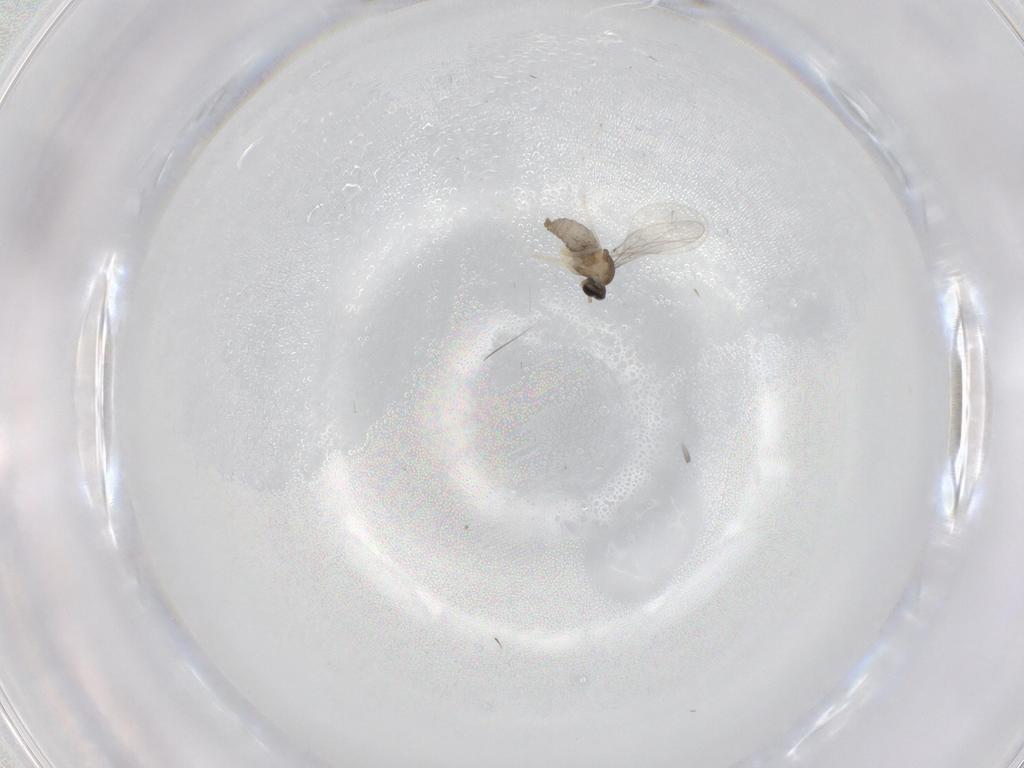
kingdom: Animalia
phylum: Arthropoda
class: Insecta
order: Diptera
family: Cecidomyiidae
